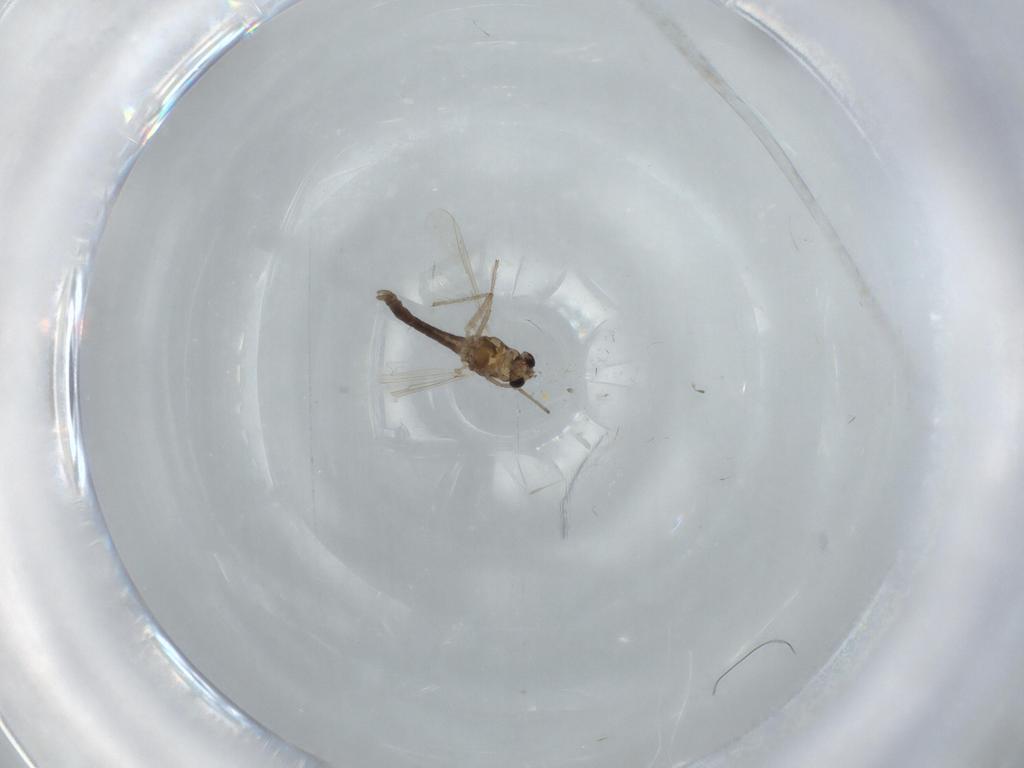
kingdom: Animalia
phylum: Arthropoda
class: Insecta
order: Diptera
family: Chironomidae
